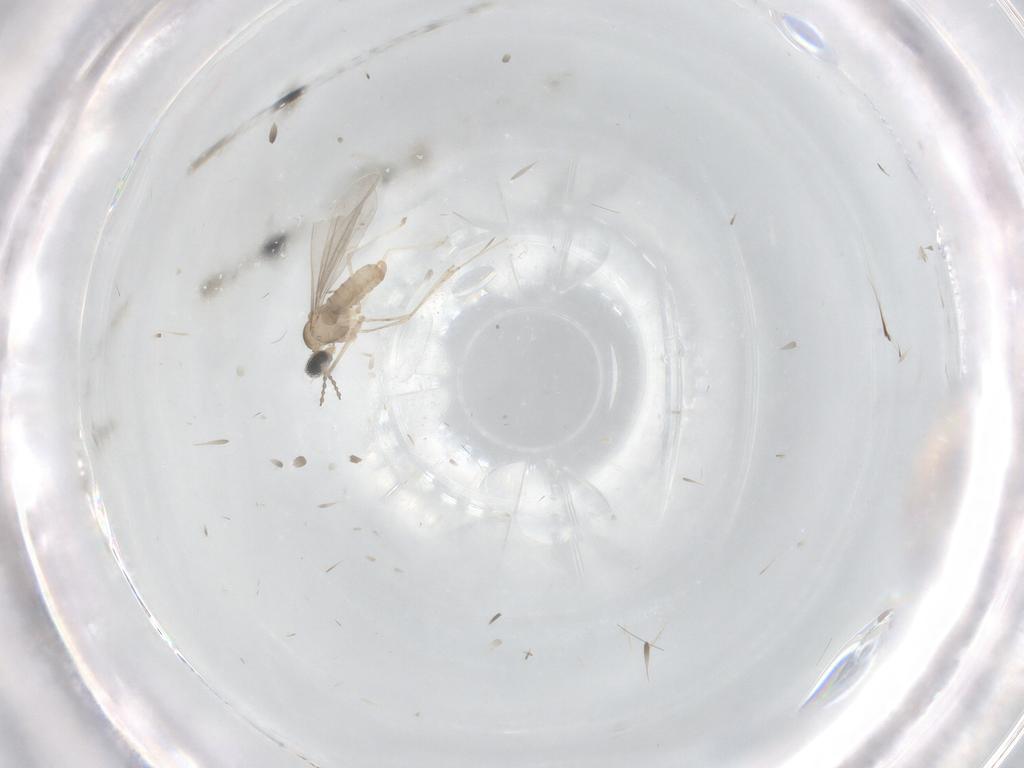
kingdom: Animalia
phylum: Arthropoda
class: Insecta
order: Diptera
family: Cecidomyiidae
